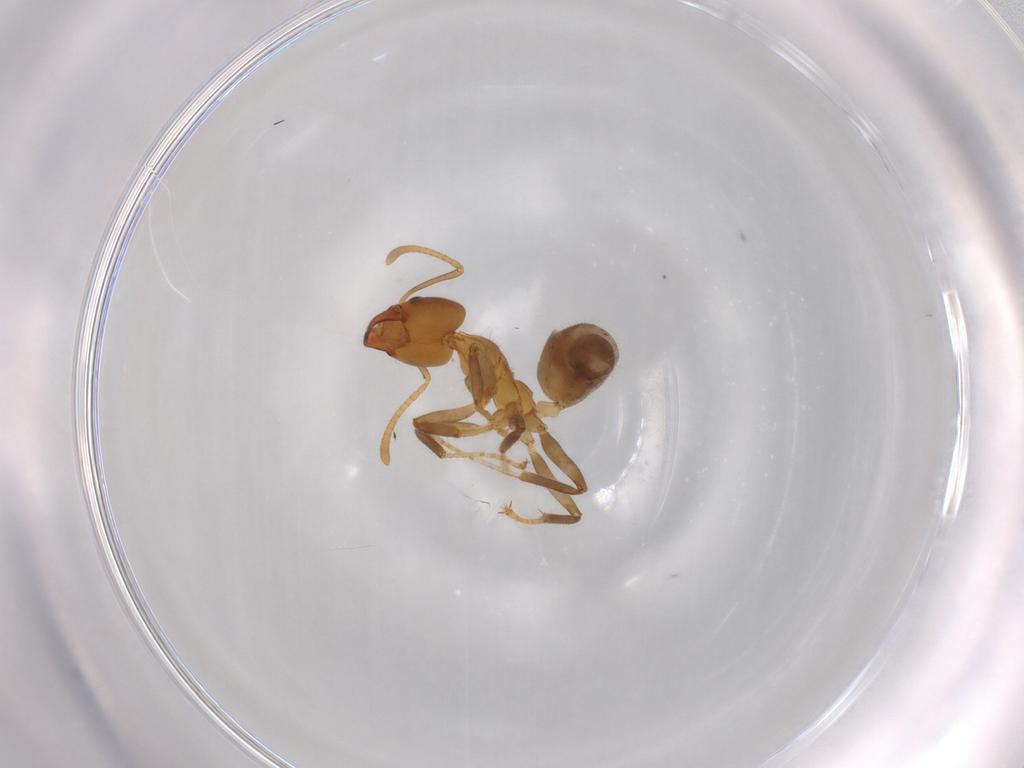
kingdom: Animalia
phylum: Arthropoda
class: Insecta
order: Hymenoptera
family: Formicidae
